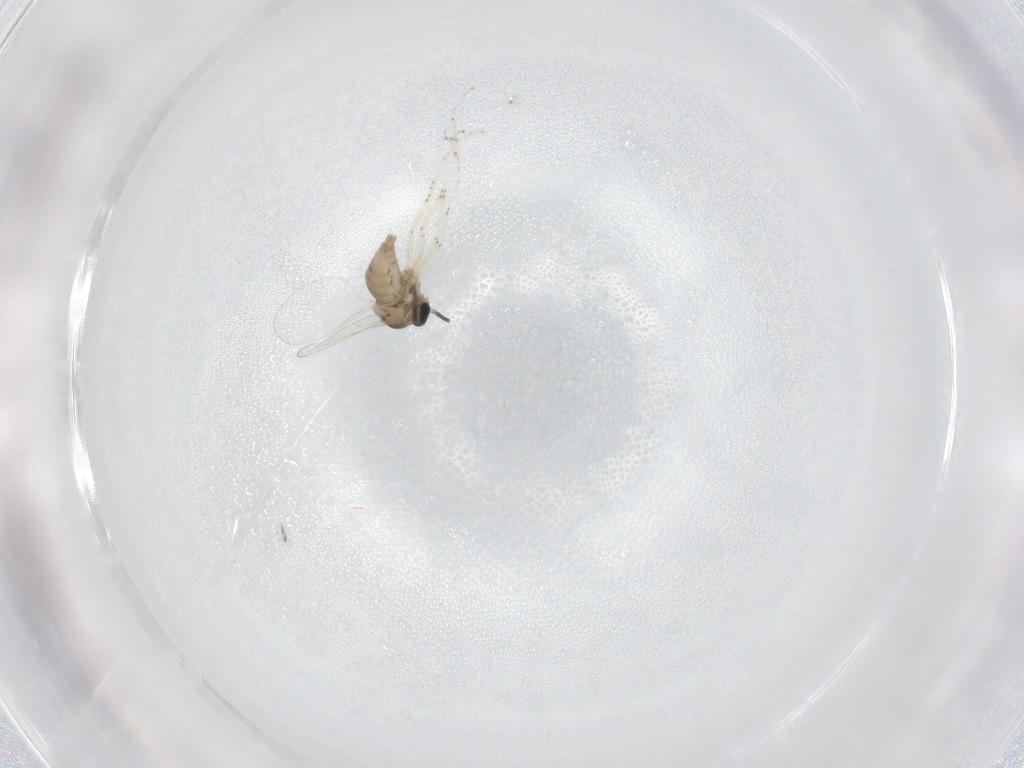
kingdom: Animalia
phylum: Arthropoda
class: Insecta
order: Diptera
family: Cecidomyiidae
